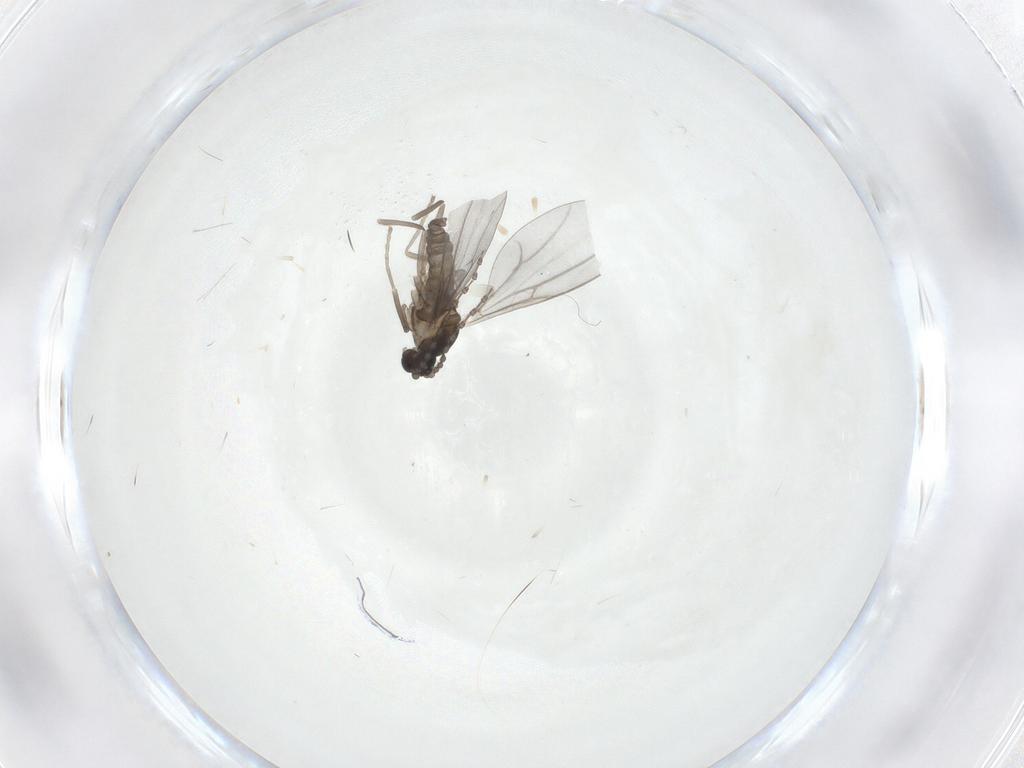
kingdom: Animalia
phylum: Arthropoda
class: Insecta
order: Diptera
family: Cecidomyiidae
